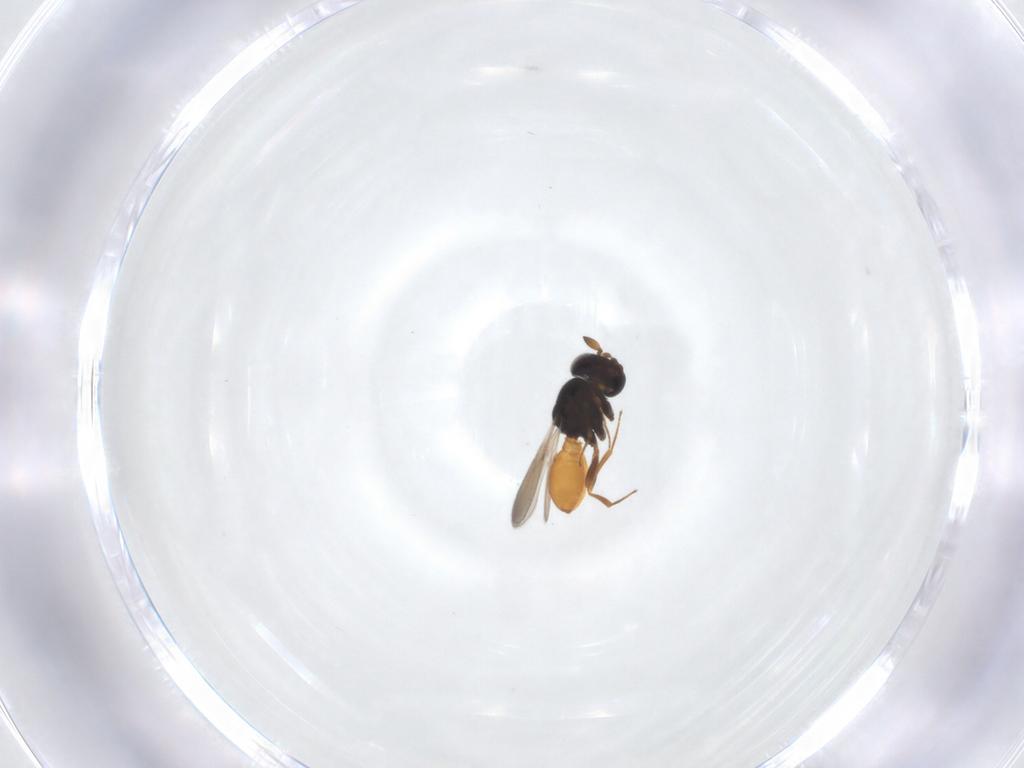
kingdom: Animalia
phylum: Arthropoda
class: Insecta
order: Hymenoptera
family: Scelionidae
